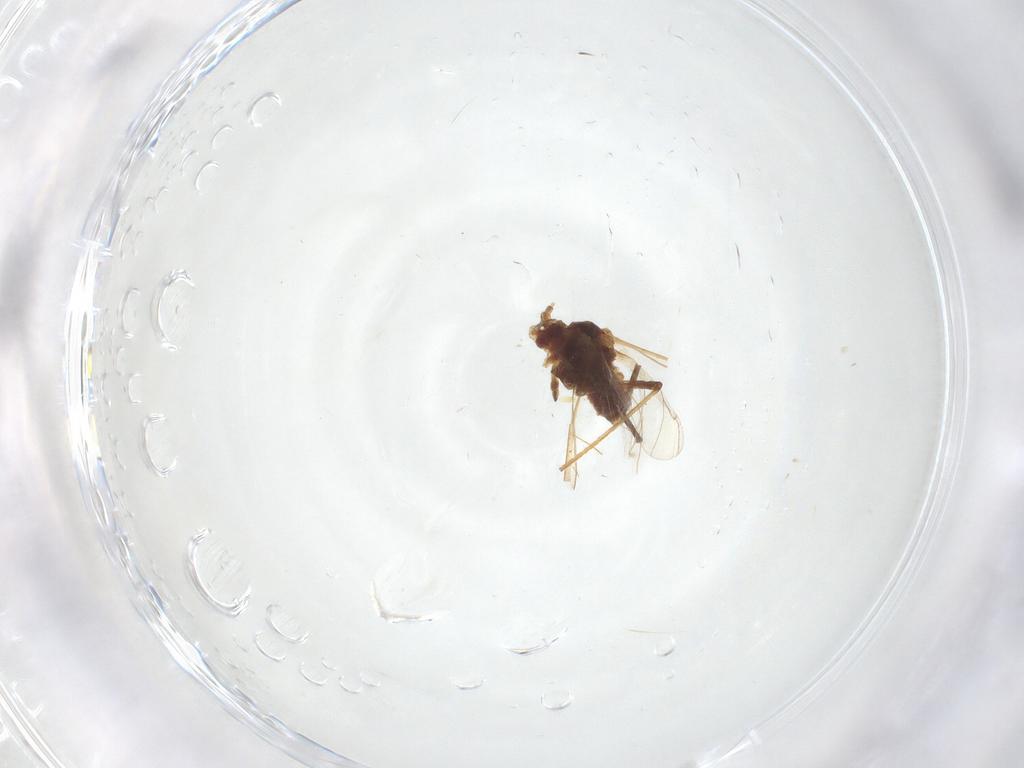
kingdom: Animalia
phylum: Arthropoda
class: Insecta
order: Hemiptera
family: Aphididae
